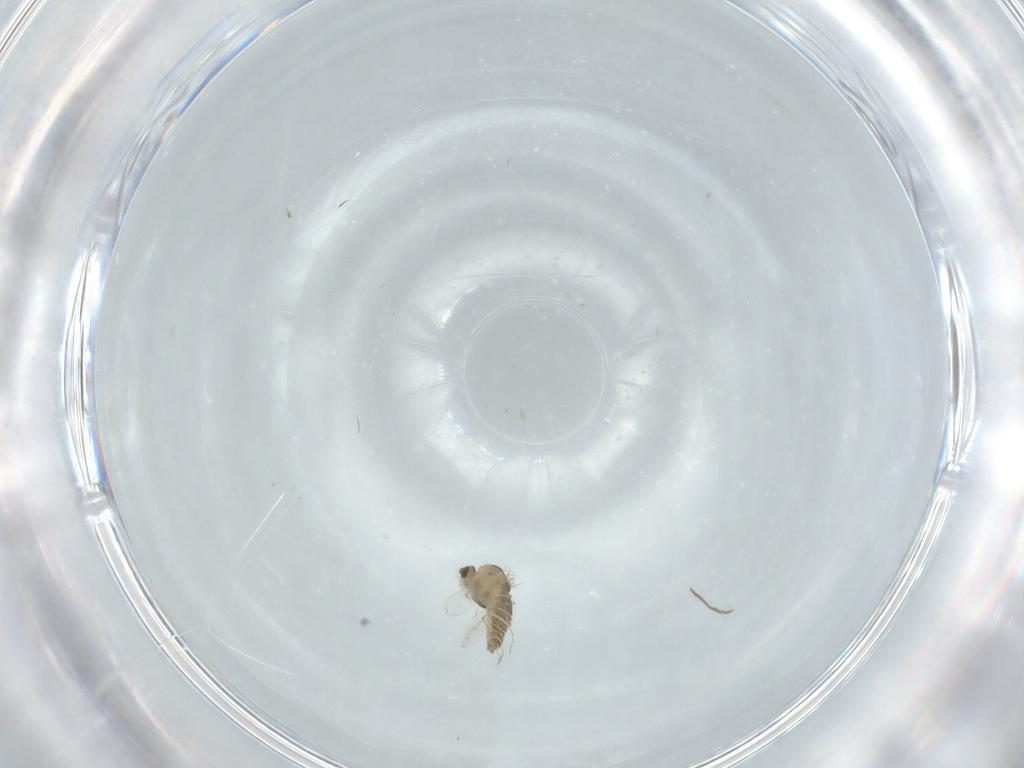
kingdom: Animalia
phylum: Arthropoda
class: Insecta
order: Diptera
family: Chironomidae
